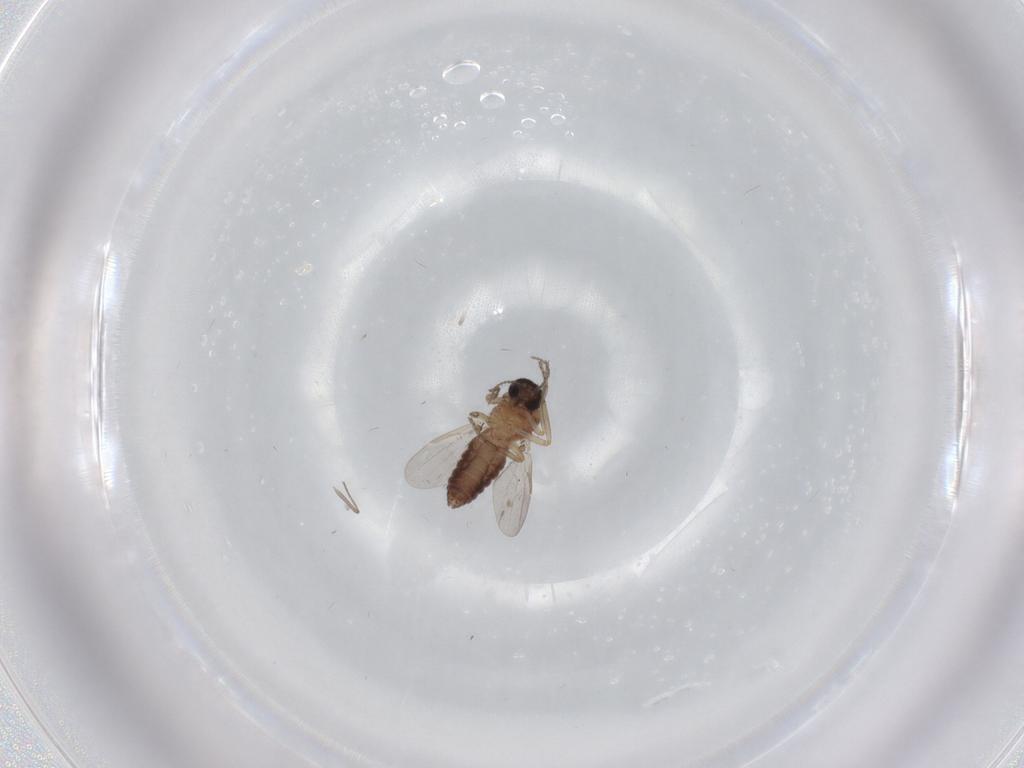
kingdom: Animalia
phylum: Arthropoda
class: Insecta
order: Diptera
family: Ceratopogonidae
